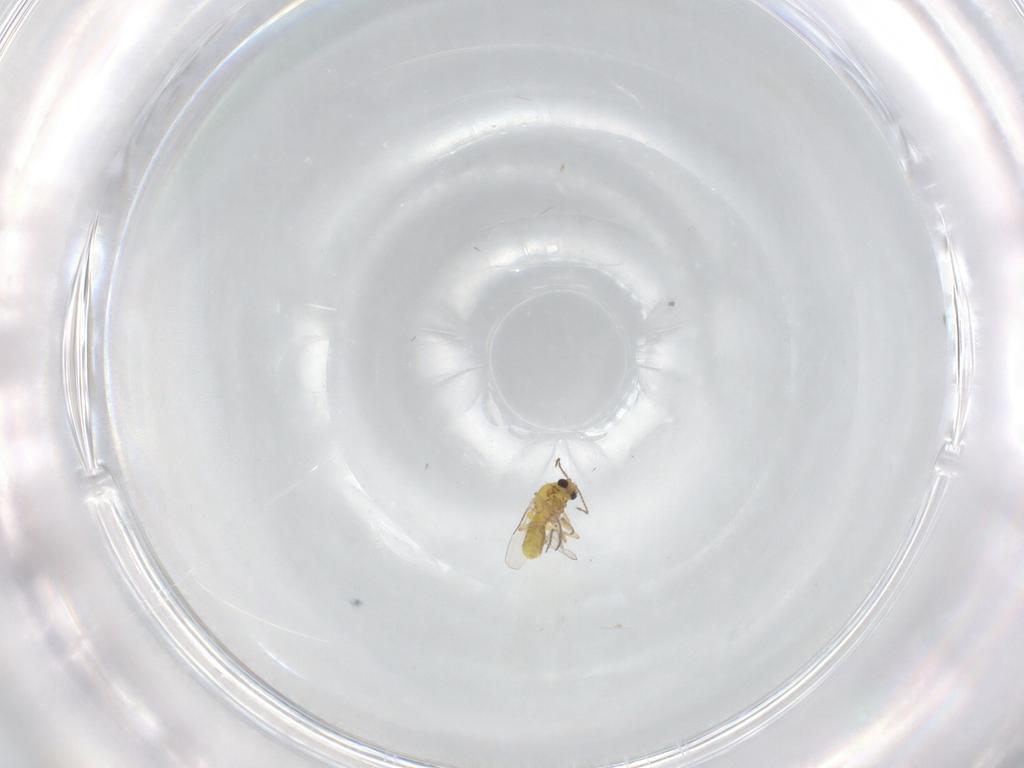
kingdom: Animalia
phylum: Arthropoda
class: Insecta
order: Diptera
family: Ceratopogonidae
